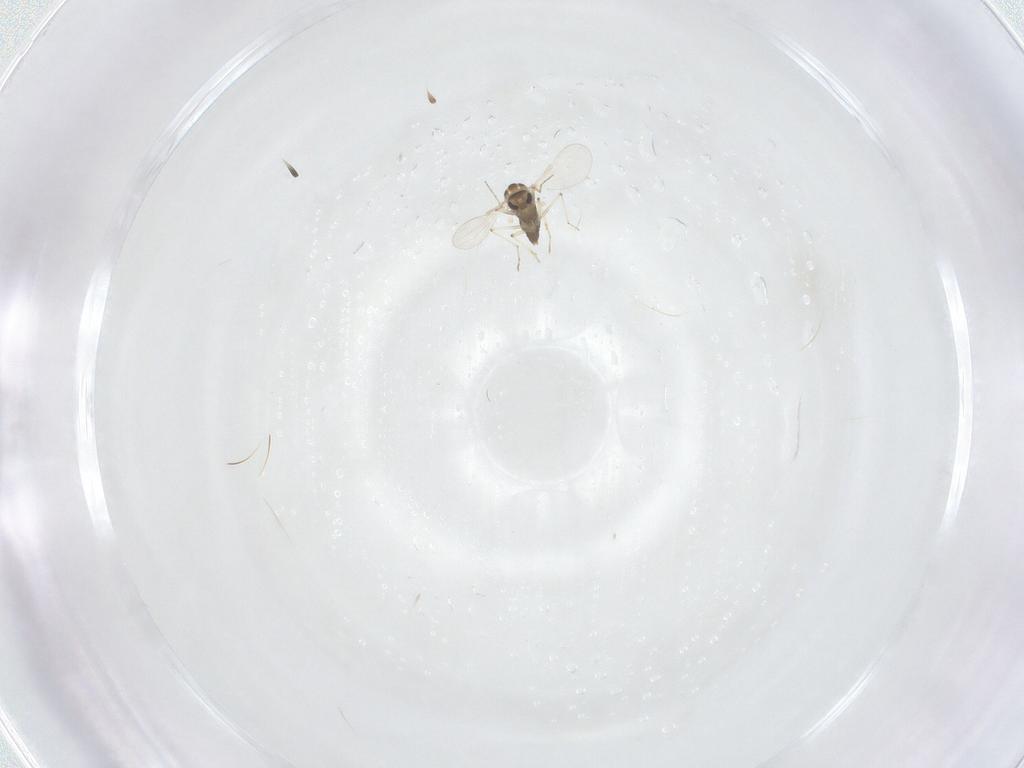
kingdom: Animalia
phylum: Arthropoda
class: Insecta
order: Diptera
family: Chironomidae
